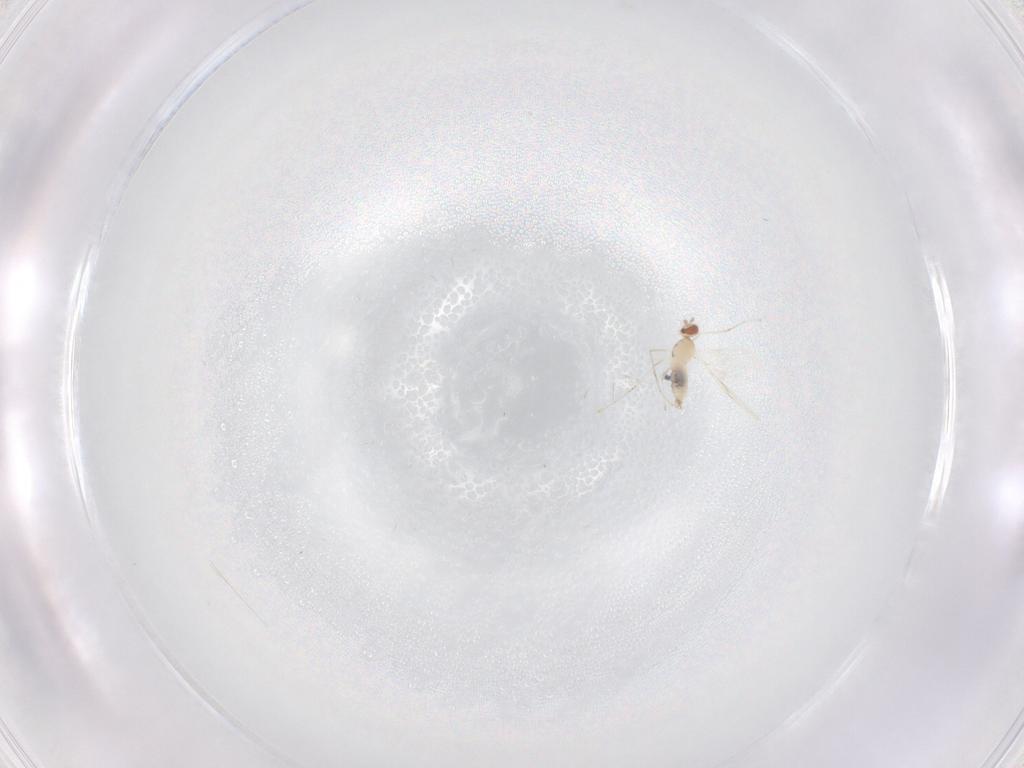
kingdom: Animalia
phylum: Arthropoda
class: Insecta
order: Diptera
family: Cecidomyiidae
